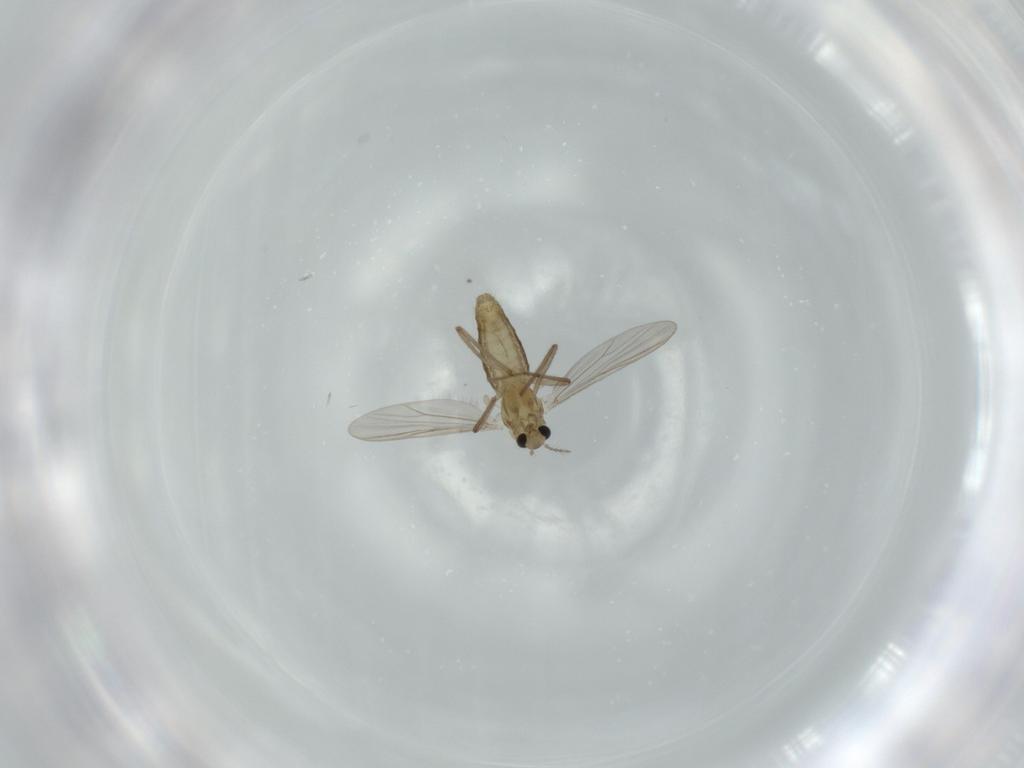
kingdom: Animalia
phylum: Arthropoda
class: Insecta
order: Diptera
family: Chironomidae
